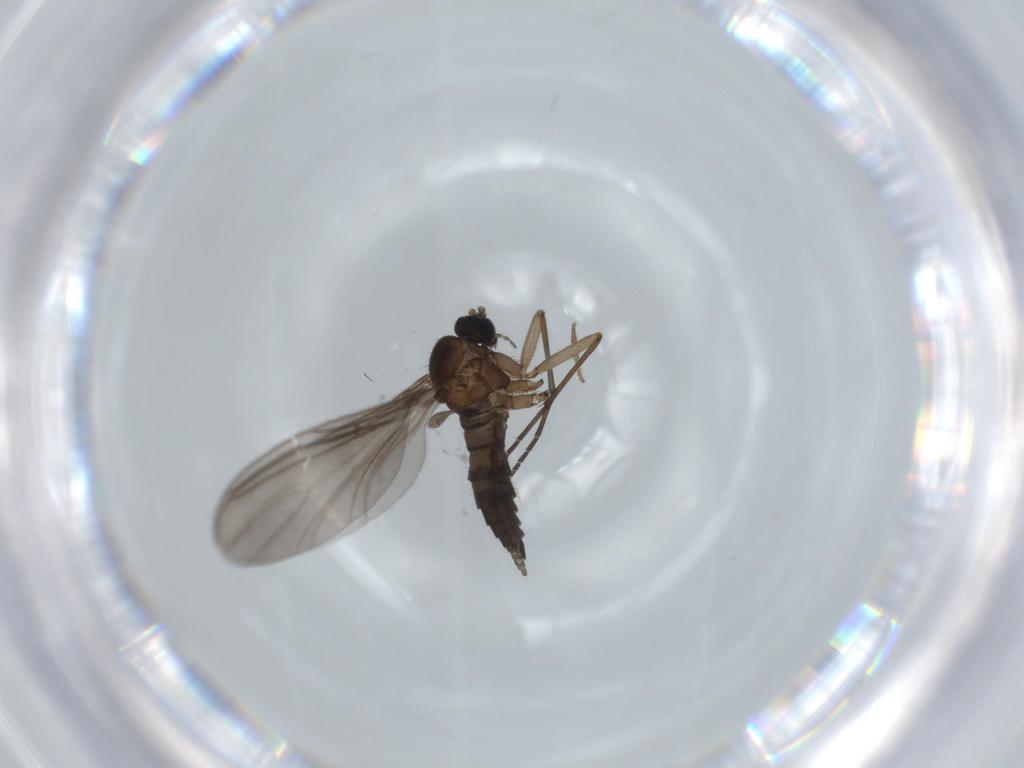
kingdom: Animalia
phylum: Arthropoda
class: Insecta
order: Diptera
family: Sciaridae
